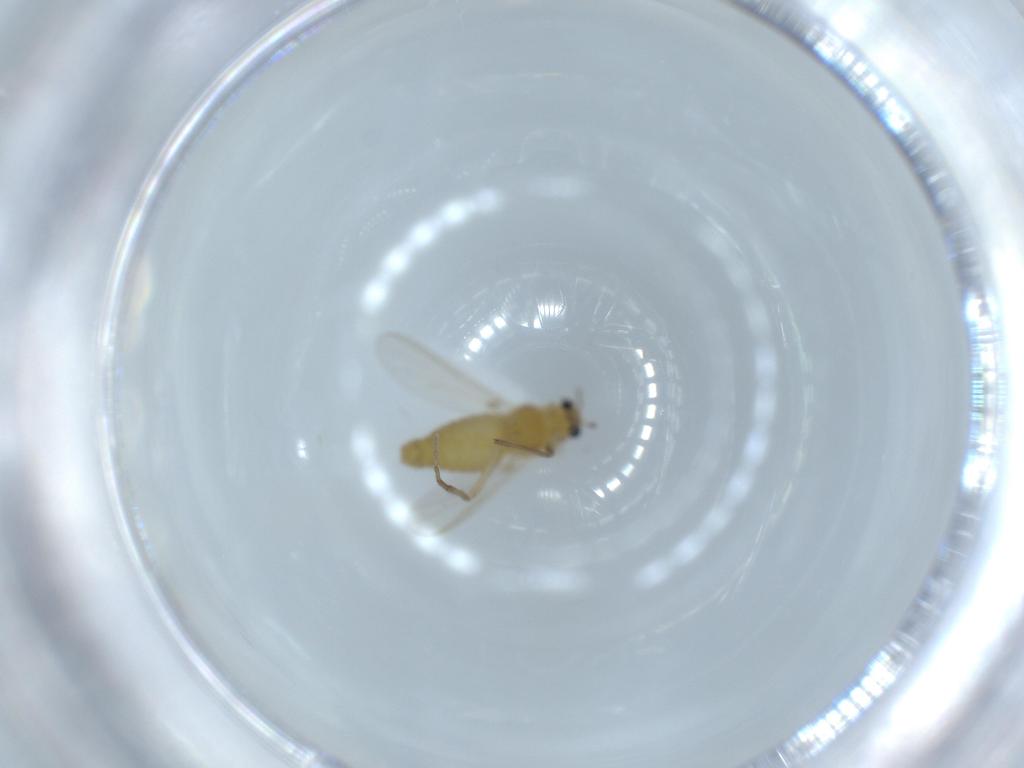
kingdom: Animalia
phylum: Arthropoda
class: Insecta
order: Diptera
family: Chironomidae
